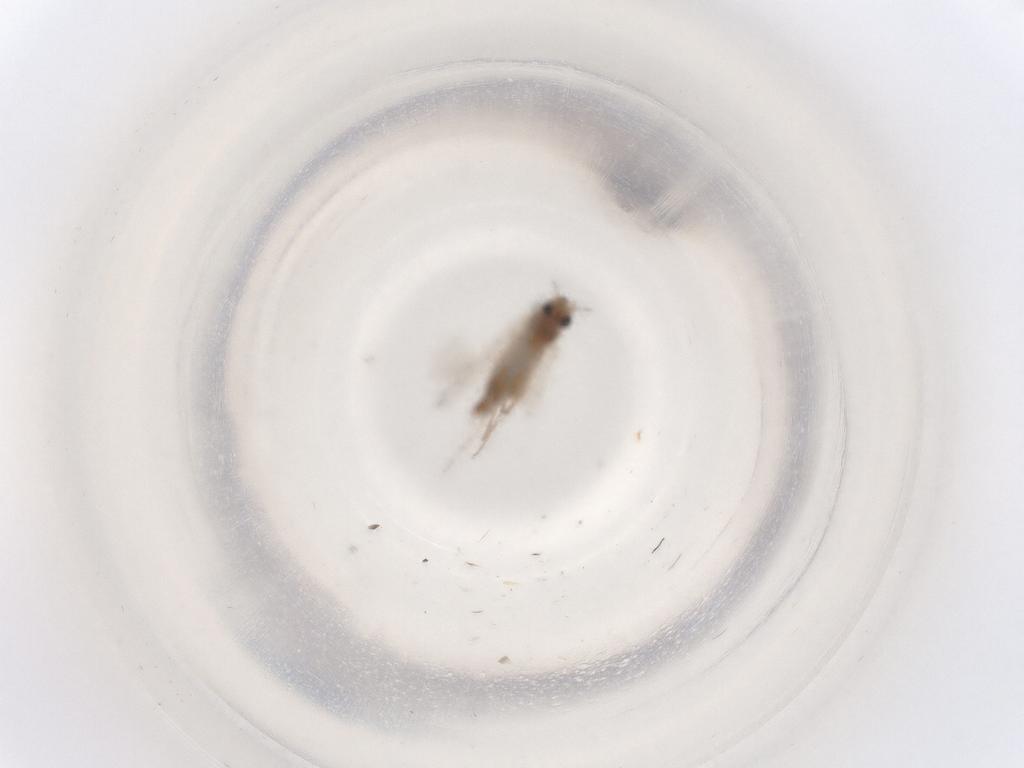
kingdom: Animalia
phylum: Arthropoda
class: Insecta
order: Diptera
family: Chironomidae
